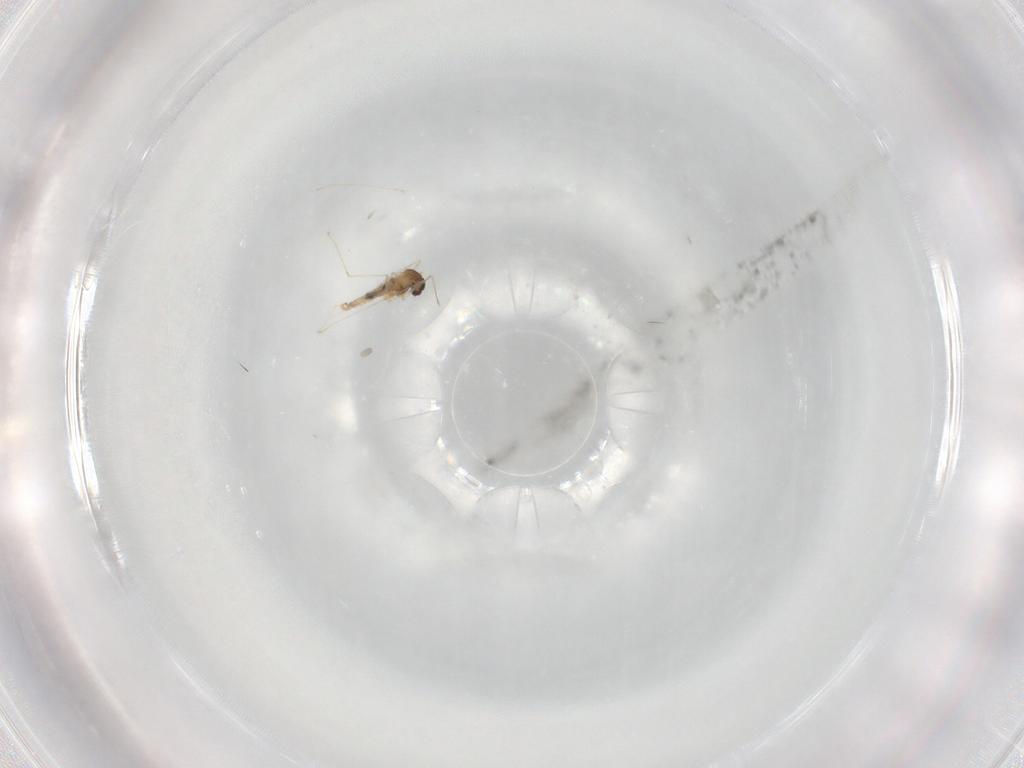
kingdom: Animalia
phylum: Arthropoda
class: Insecta
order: Diptera
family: Cecidomyiidae
